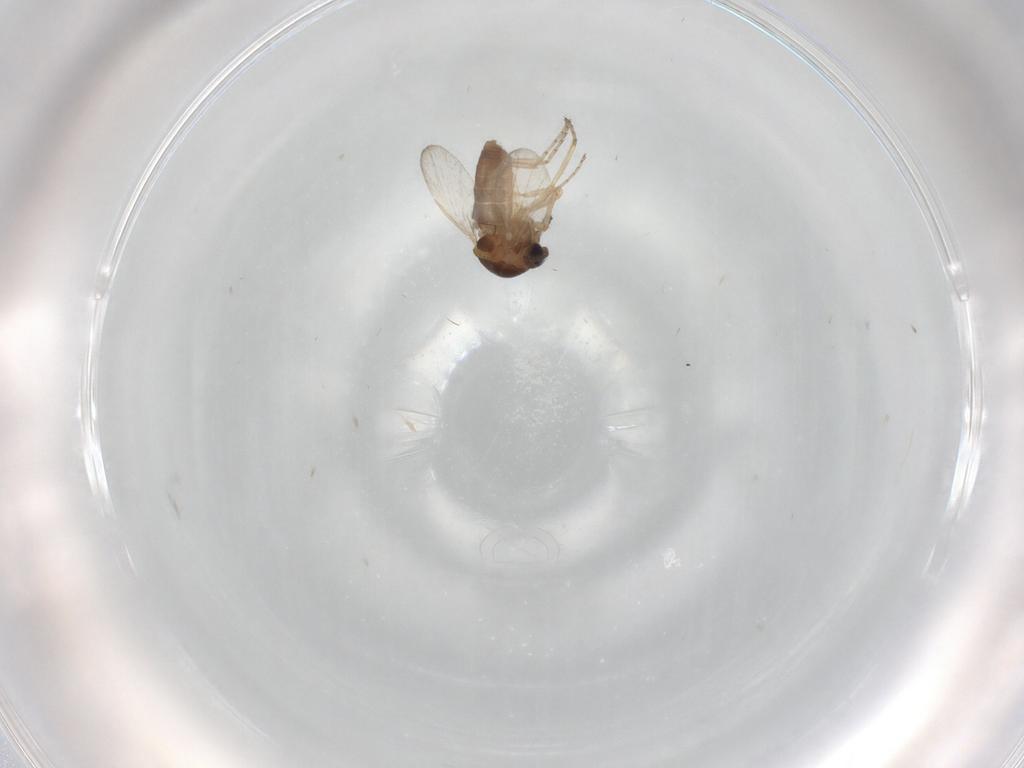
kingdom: Animalia
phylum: Arthropoda
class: Insecta
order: Diptera
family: Ceratopogonidae
